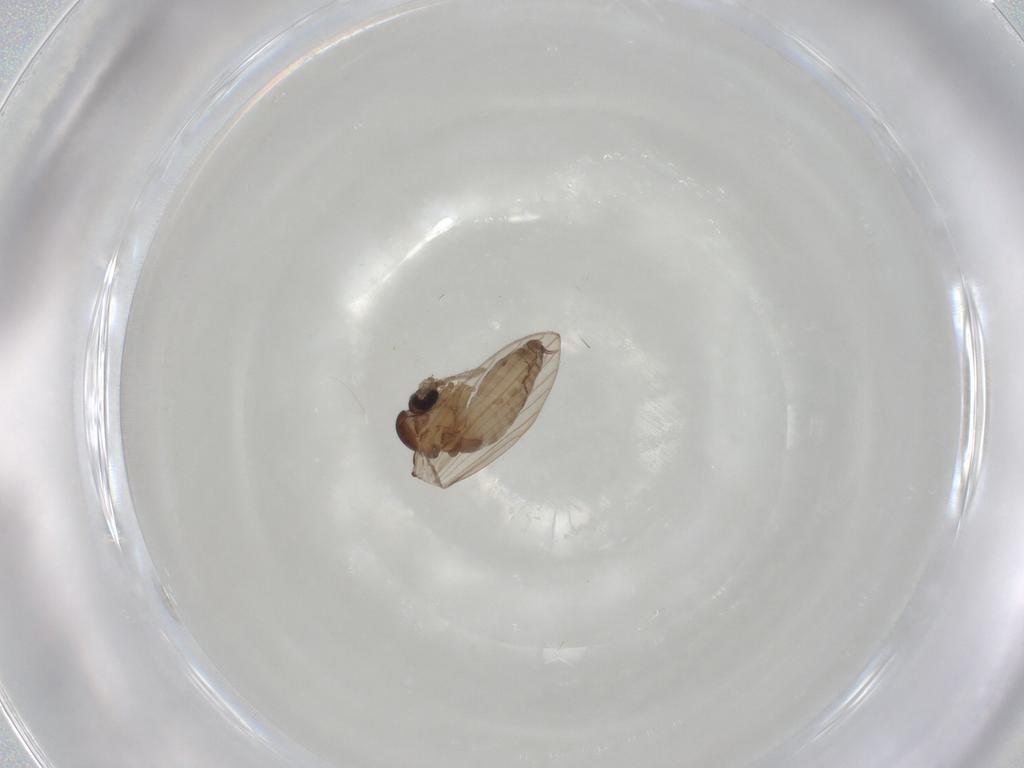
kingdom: Animalia
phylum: Arthropoda
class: Insecta
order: Diptera
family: Psychodidae
